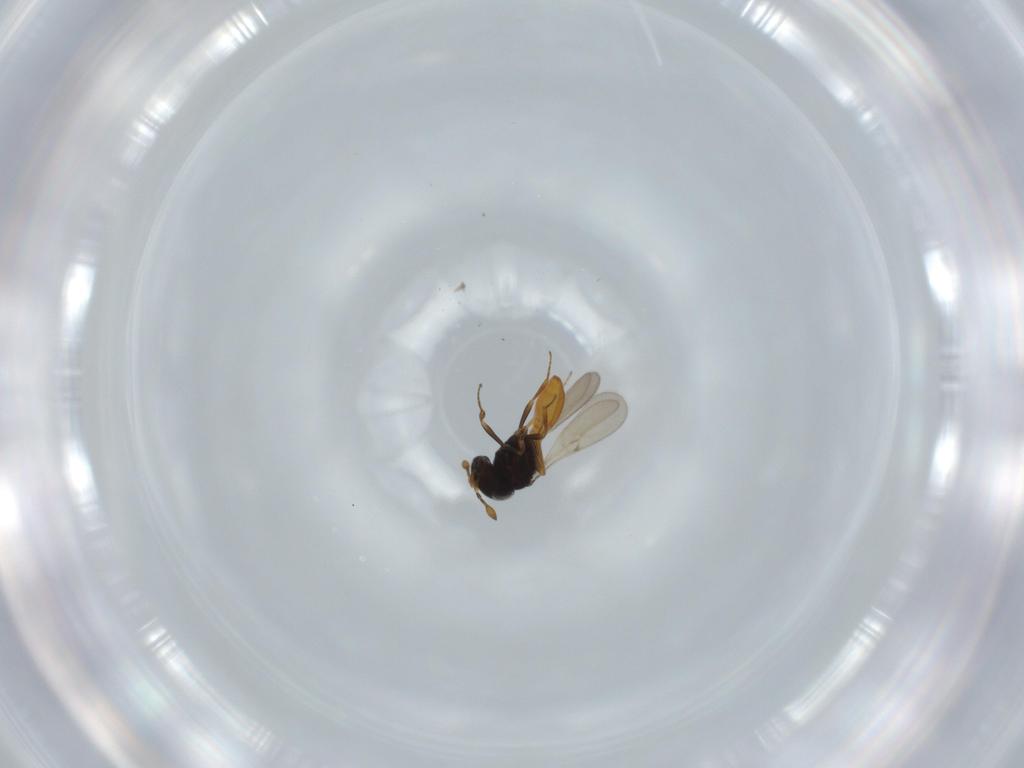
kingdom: Animalia
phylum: Arthropoda
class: Insecta
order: Hymenoptera
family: Scelionidae
